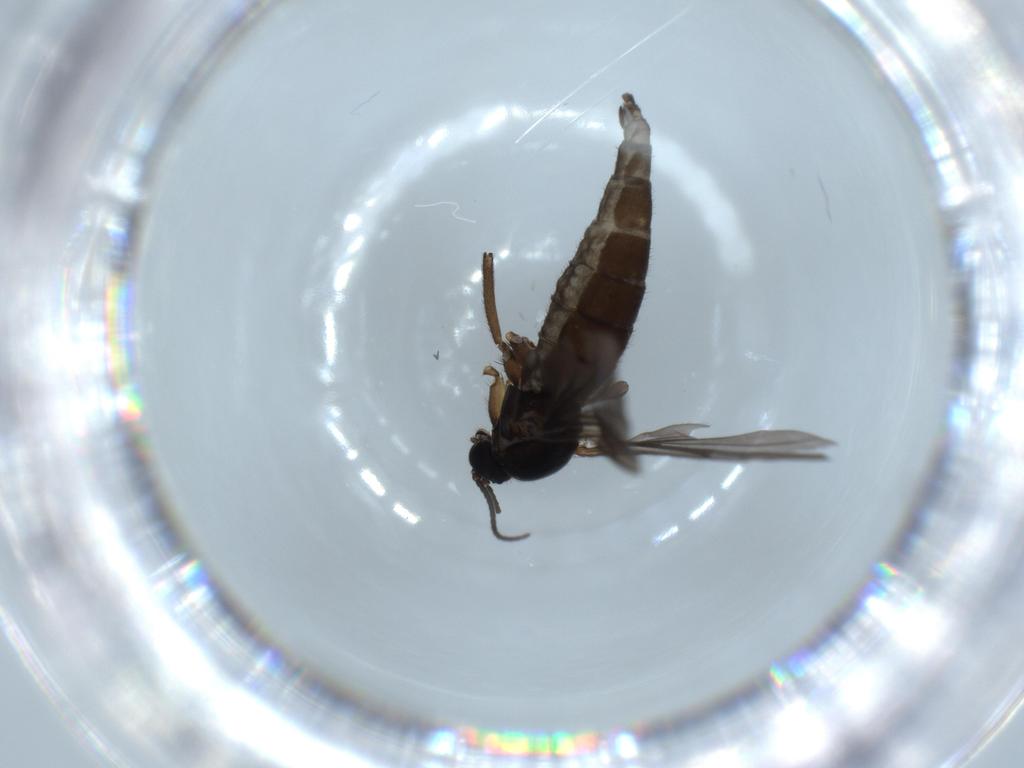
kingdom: Animalia
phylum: Arthropoda
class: Insecta
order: Diptera
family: Sciaridae
